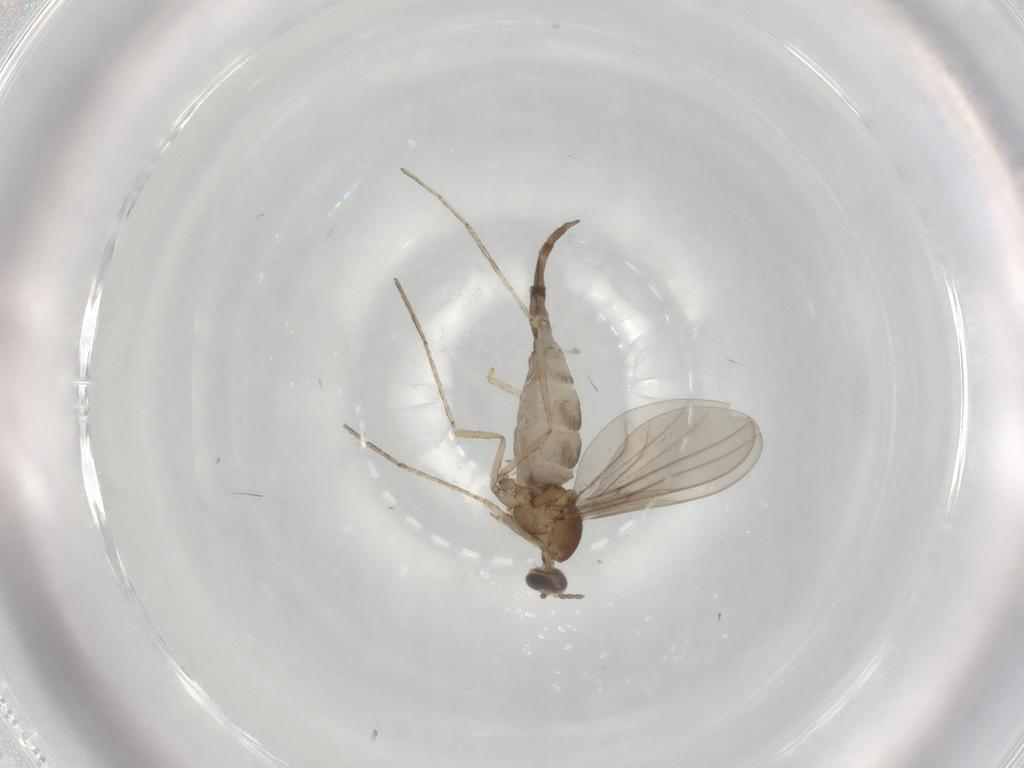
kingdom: Animalia
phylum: Arthropoda
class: Insecta
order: Diptera
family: Cecidomyiidae
